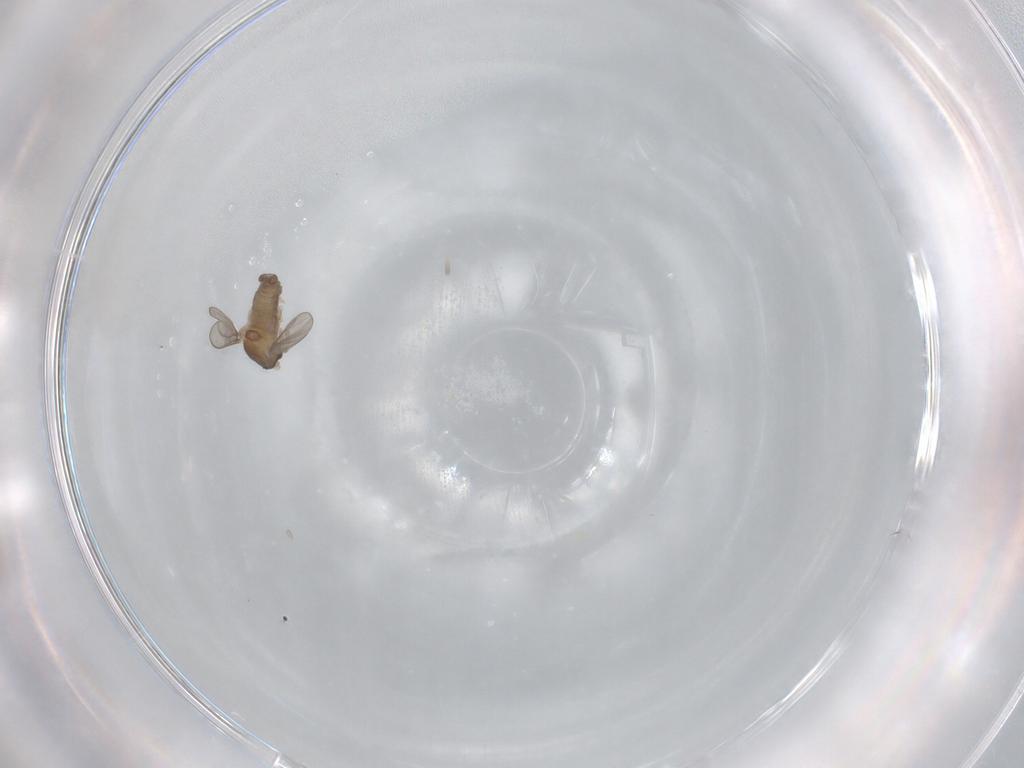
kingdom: Animalia
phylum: Arthropoda
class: Insecta
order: Diptera
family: Cecidomyiidae
